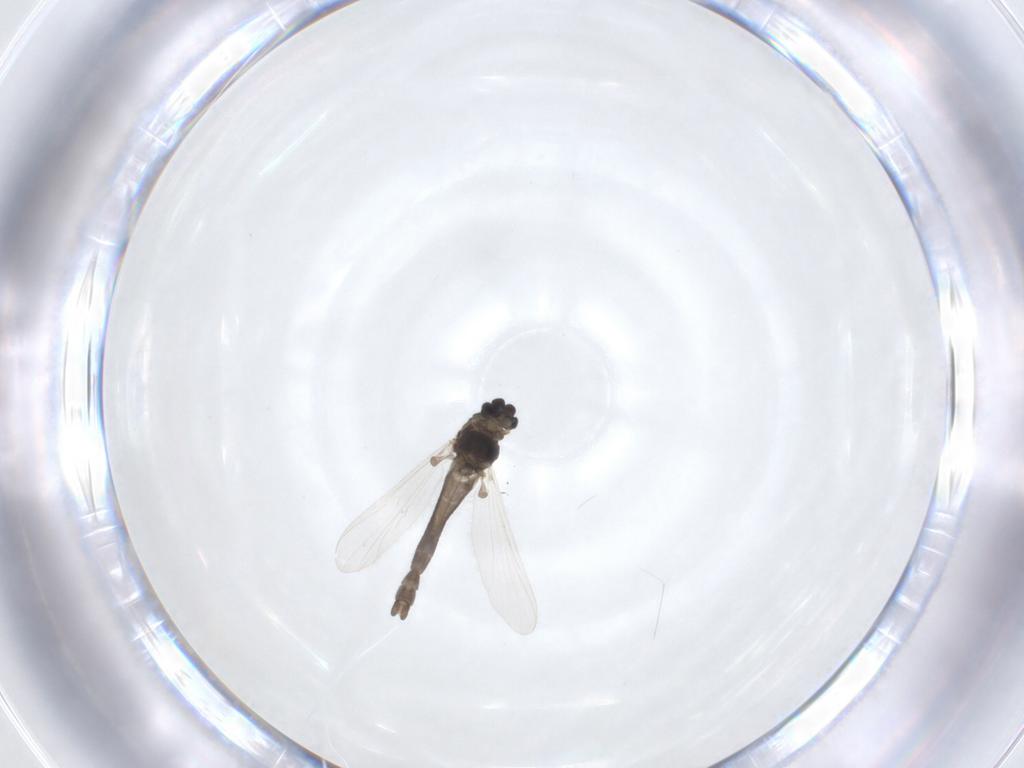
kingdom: Animalia
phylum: Arthropoda
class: Insecta
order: Diptera
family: Chironomidae
